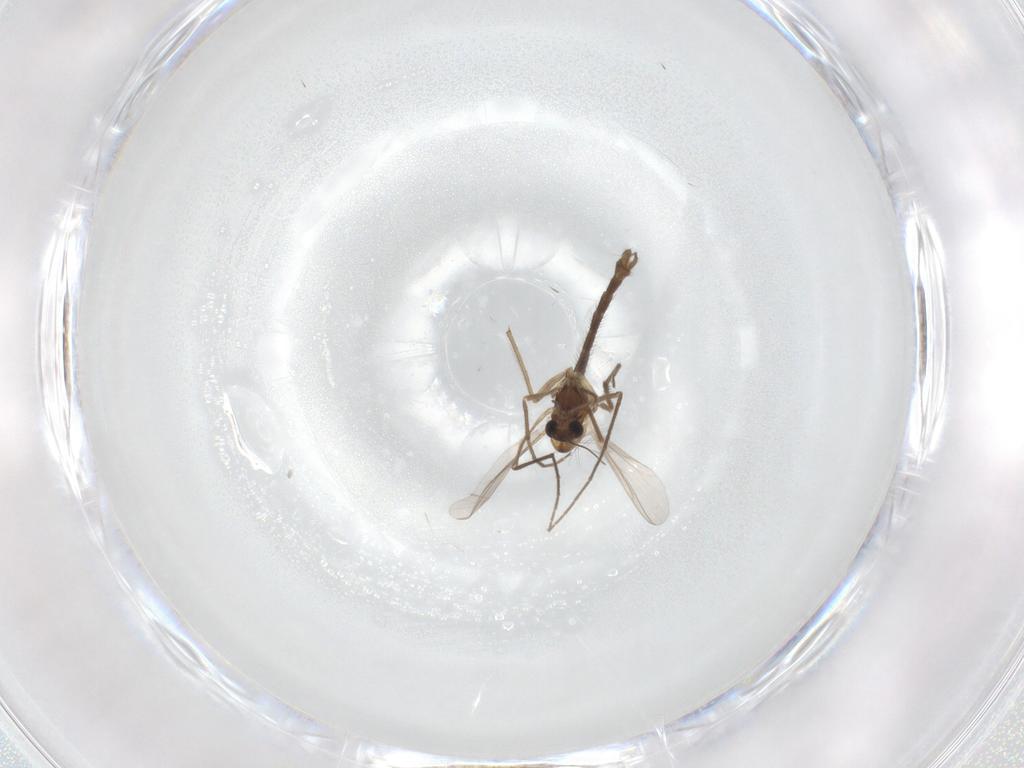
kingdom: Animalia
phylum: Arthropoda
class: Insecta
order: Diptera
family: Chironomidae
